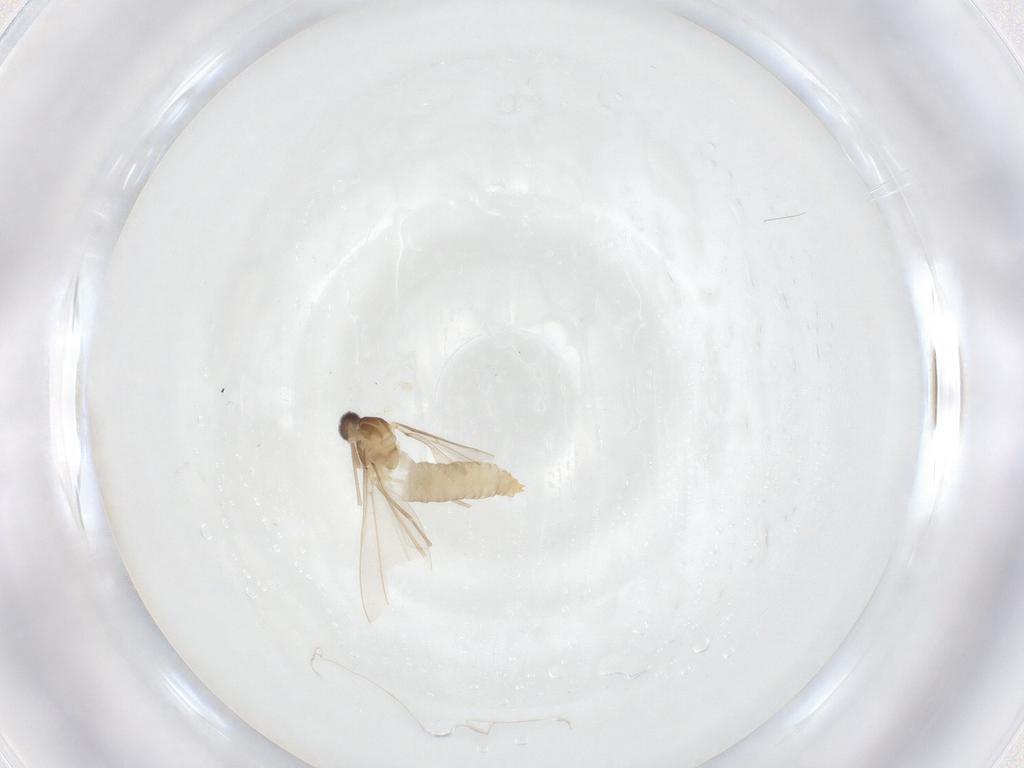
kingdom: Animalia
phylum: Arthropoda
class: Insecta
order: Diptera
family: Cecidomyiidae
